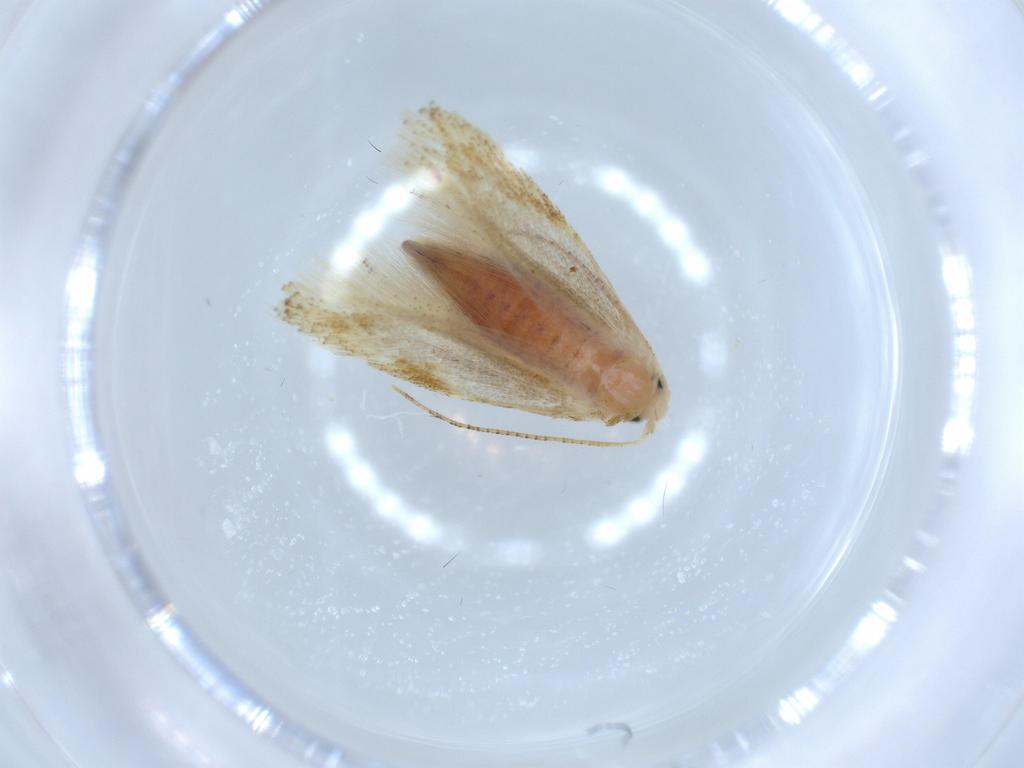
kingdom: Animalia
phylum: Arthropoda
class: Insecta
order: Lepidoptera
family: Bucculatricidae
